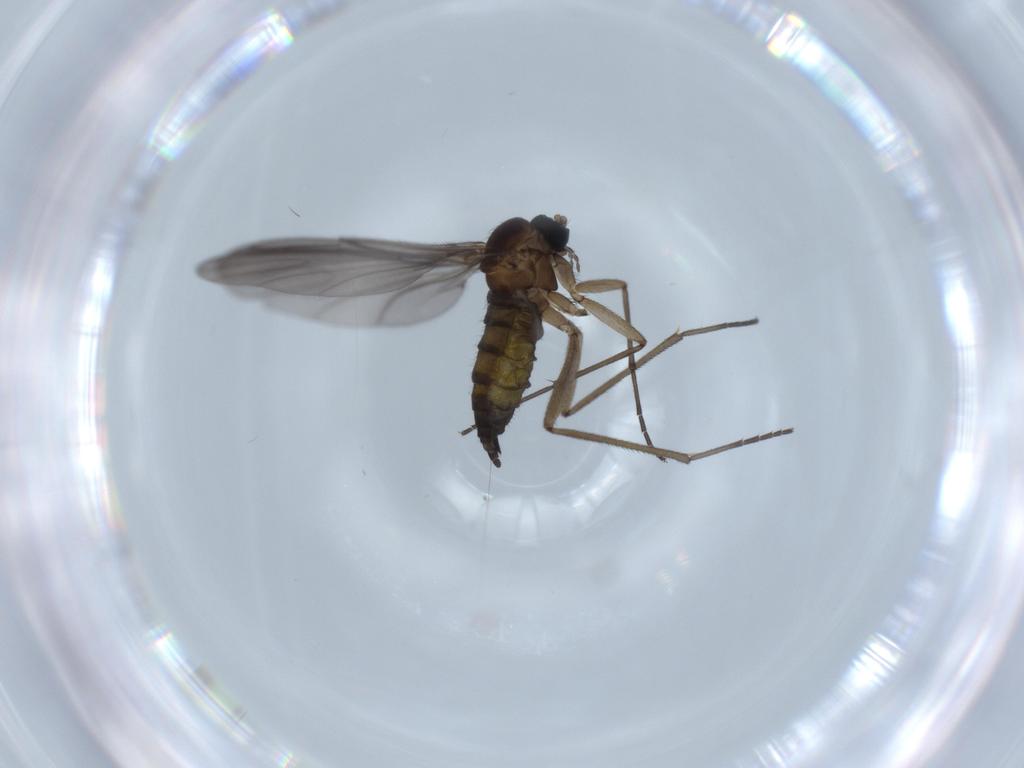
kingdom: Animalia
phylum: Arthropoda
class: Insecta
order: Diptera
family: Sciaridae
